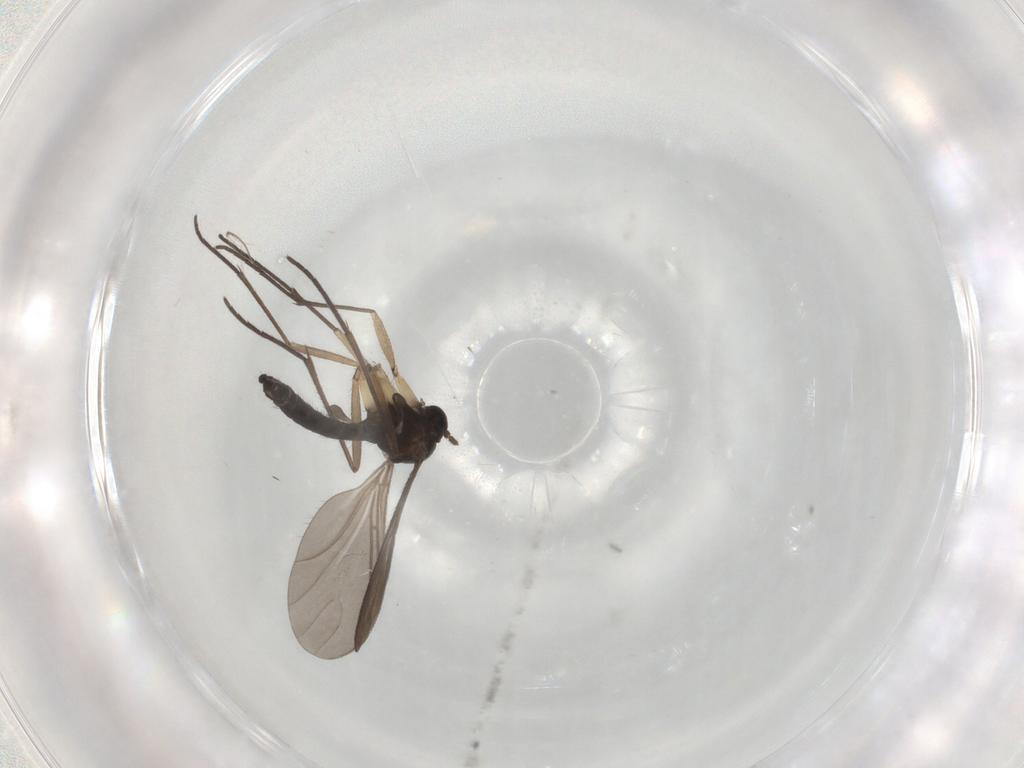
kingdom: Animalia
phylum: Arthropoda
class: Insecta
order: Diptera
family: Sciaridae
